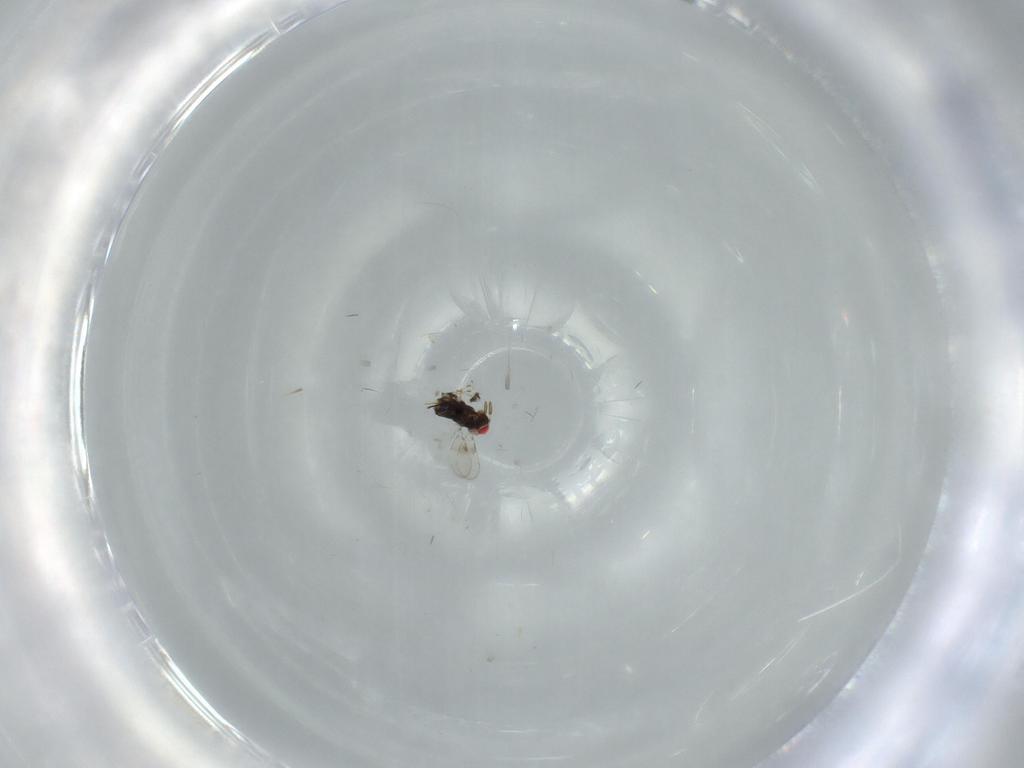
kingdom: Animalia
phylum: Arthropoda
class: Insecta
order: Hymenoptera
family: Azotidae
